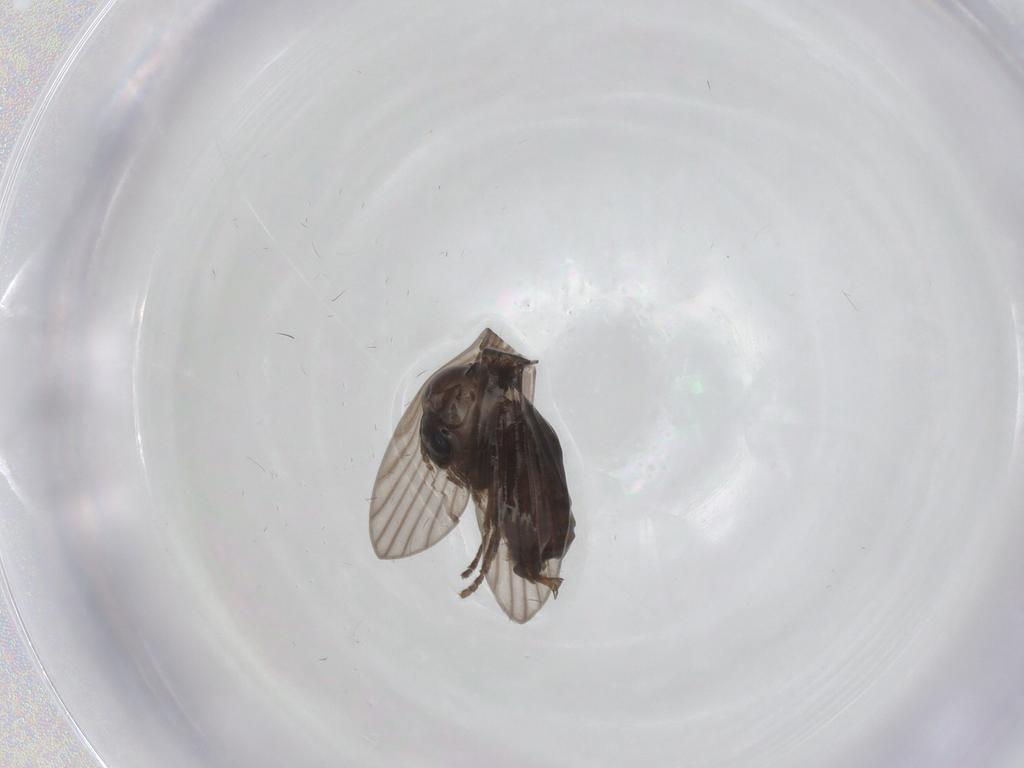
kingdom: Animalia
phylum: Arthropoda
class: Insecta
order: Diptera
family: Psychodidae
